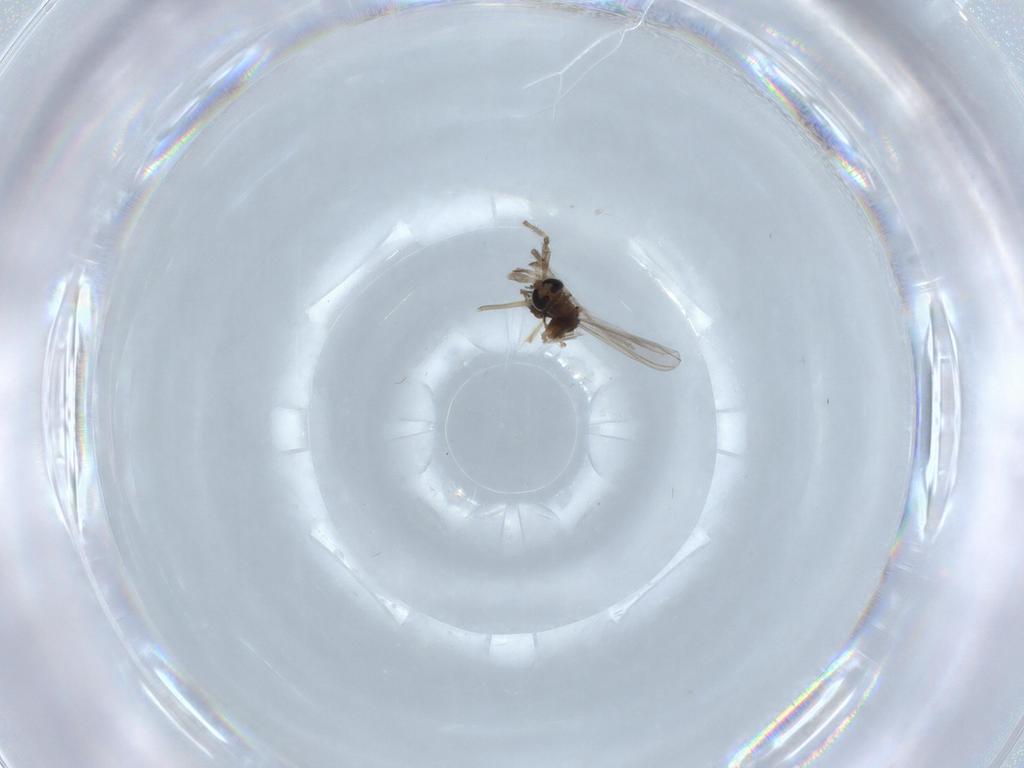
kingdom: Animalia
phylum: Arthropoda
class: Insecta
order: Diptera
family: Chironomidae
